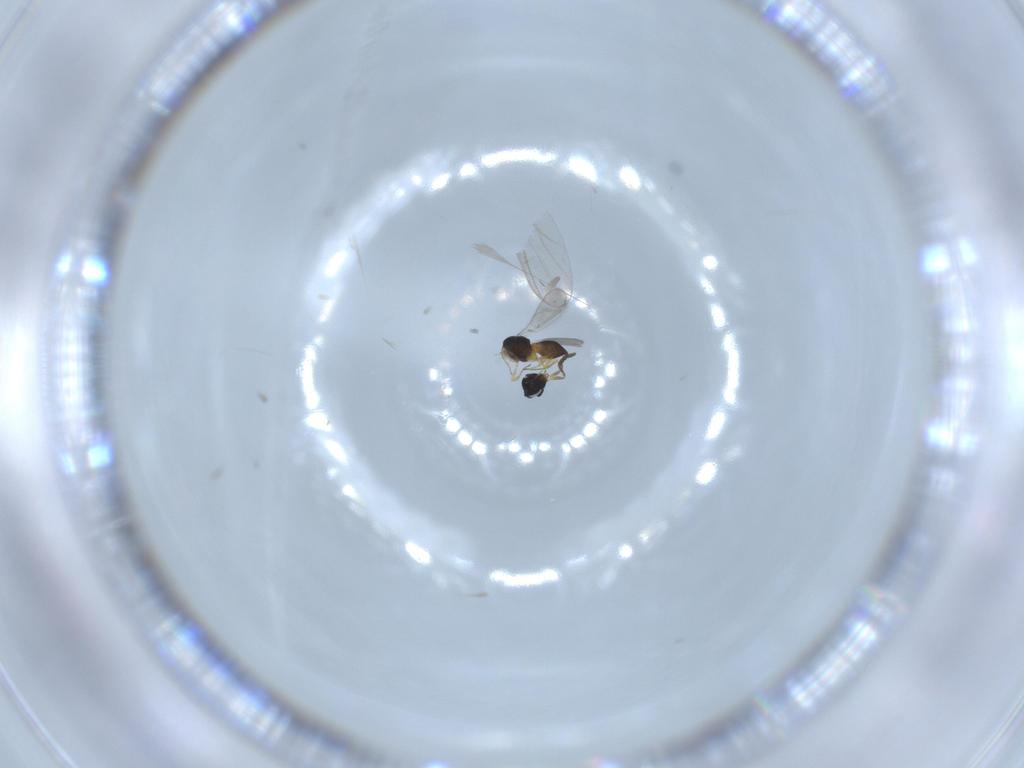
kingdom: Animalia
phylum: Arthropoda
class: Insecta
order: Hymenoptera
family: Scelionidae
